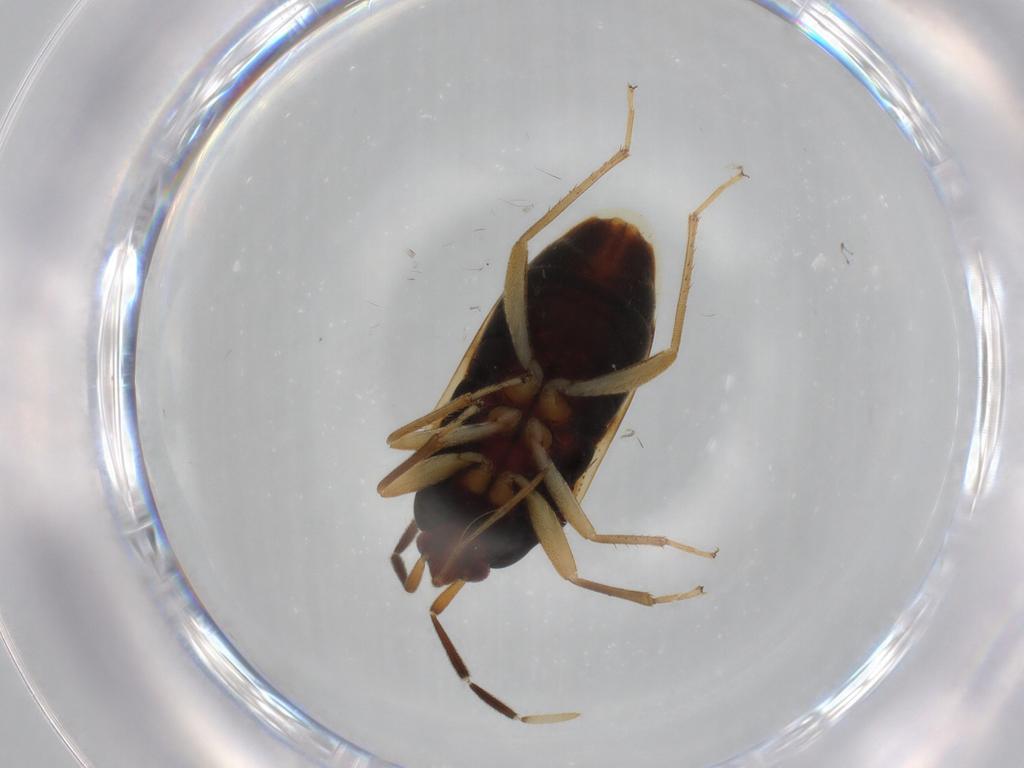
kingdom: Animalia
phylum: Arthropoda
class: Insecta
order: Hemiptera
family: Rhyparochromidae
